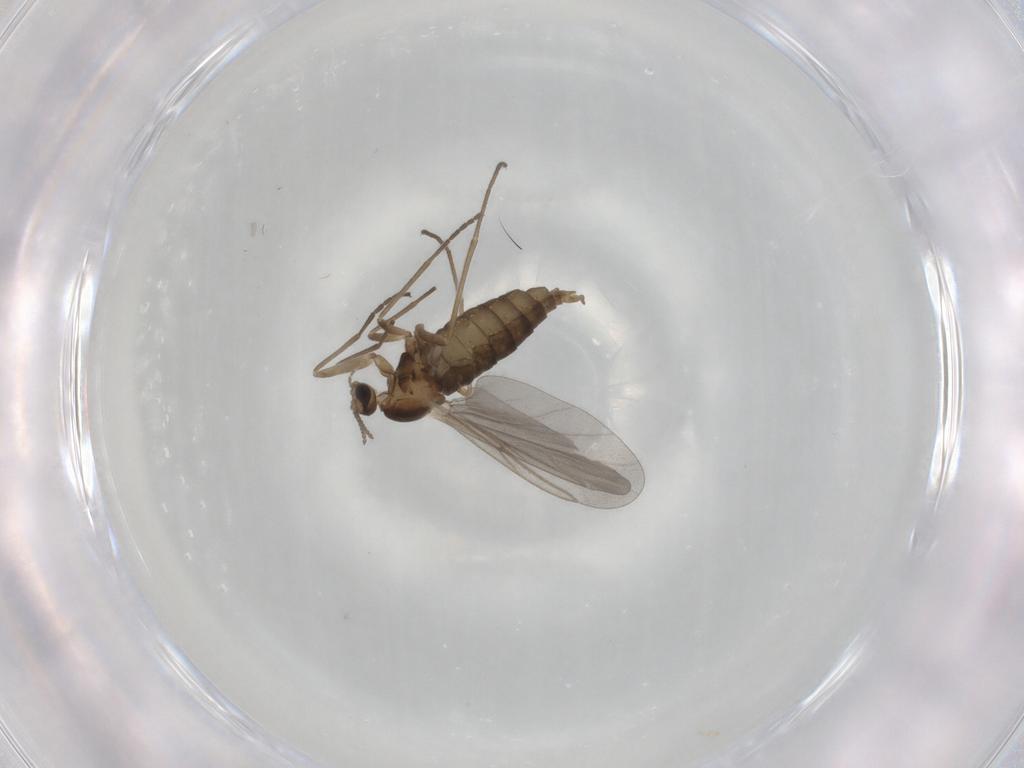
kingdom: Animalia
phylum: Arthropoda
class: Insecta
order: Diptera
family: Cecidomyiidae
